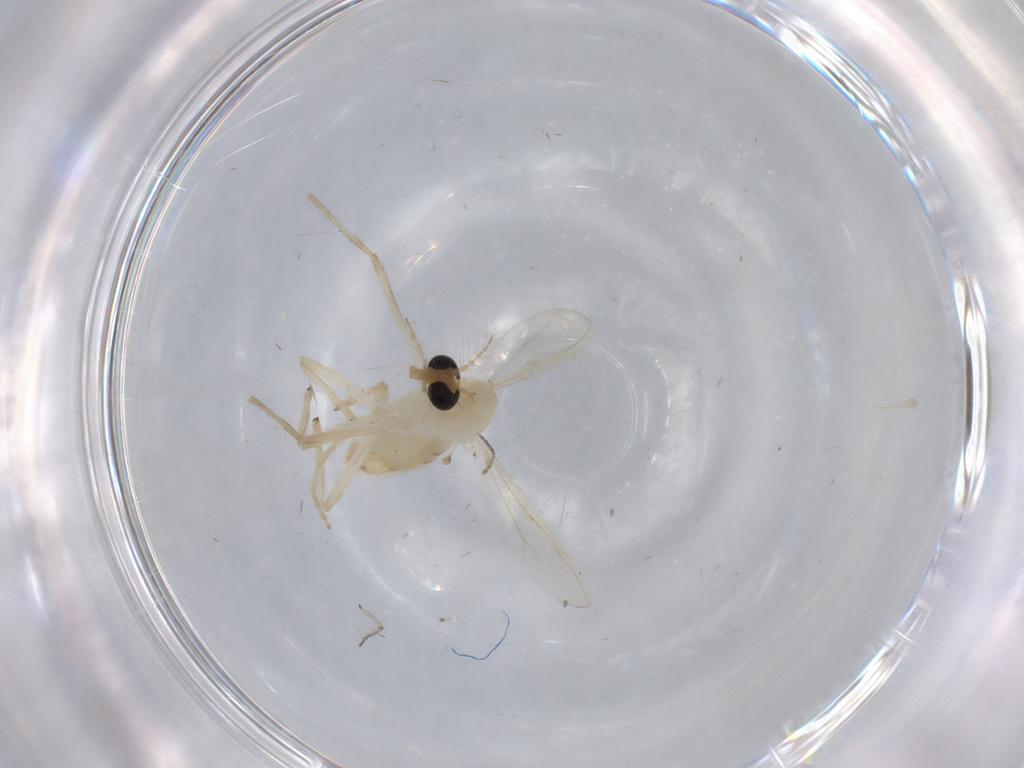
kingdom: Animalia
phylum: Arthropoda
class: Insecta
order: Diptera
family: Chironomidae
